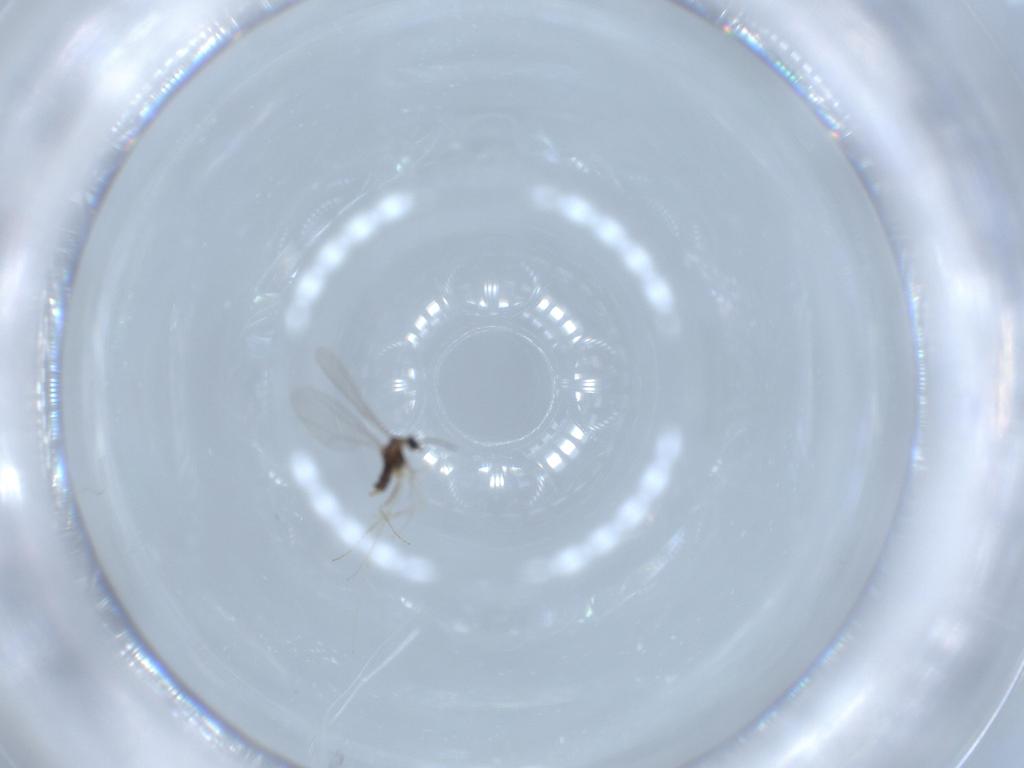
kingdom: Animalia
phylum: Arthropoda
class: Insecta
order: Diptera
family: Cecidomyiidae
